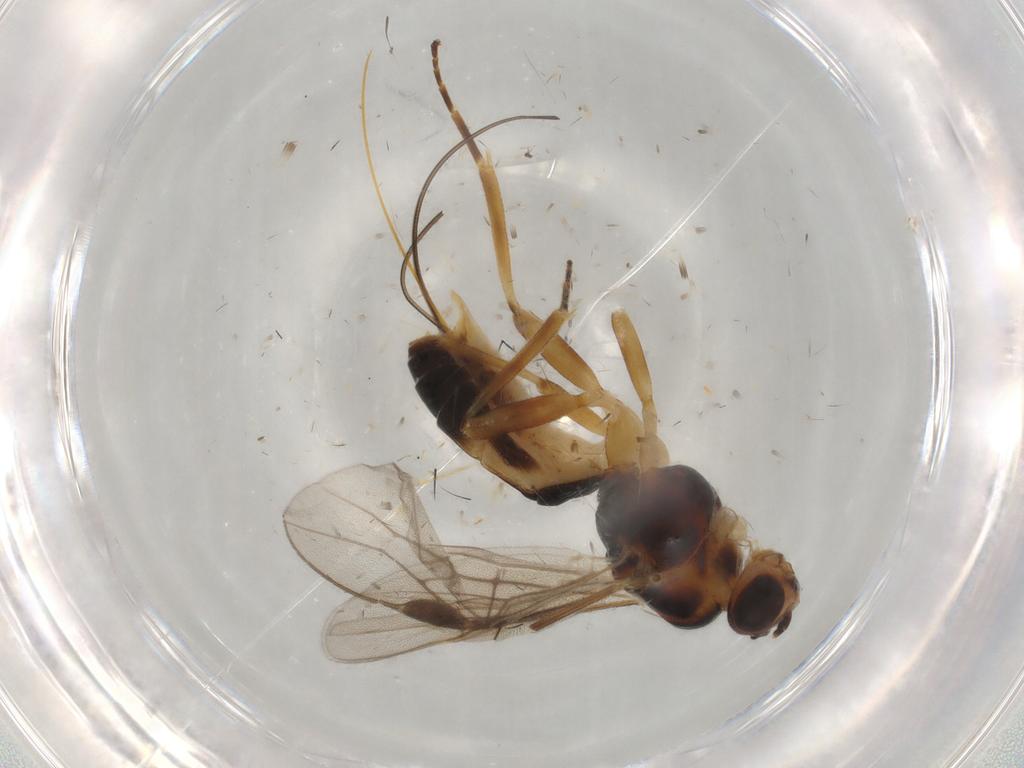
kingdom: Animalia
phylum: Arthropoda
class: Insecta
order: Hymenoptera
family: Braconidae
